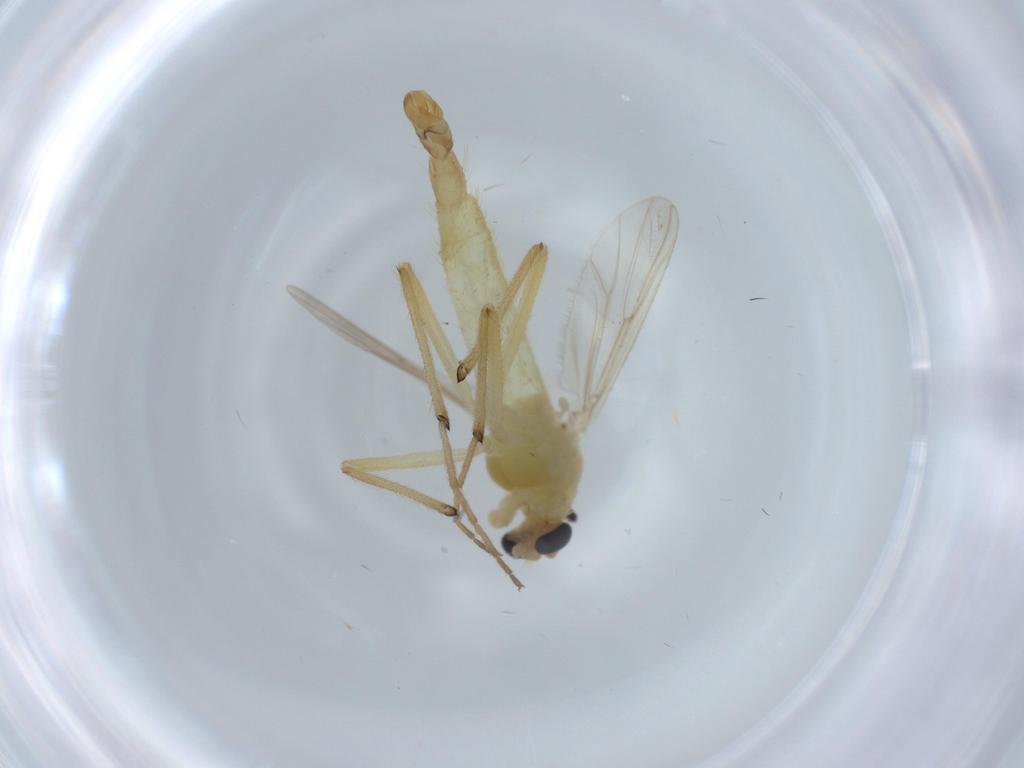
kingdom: Animalia
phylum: Arthropoda
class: Insecta
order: Diptera
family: Chironomidae
